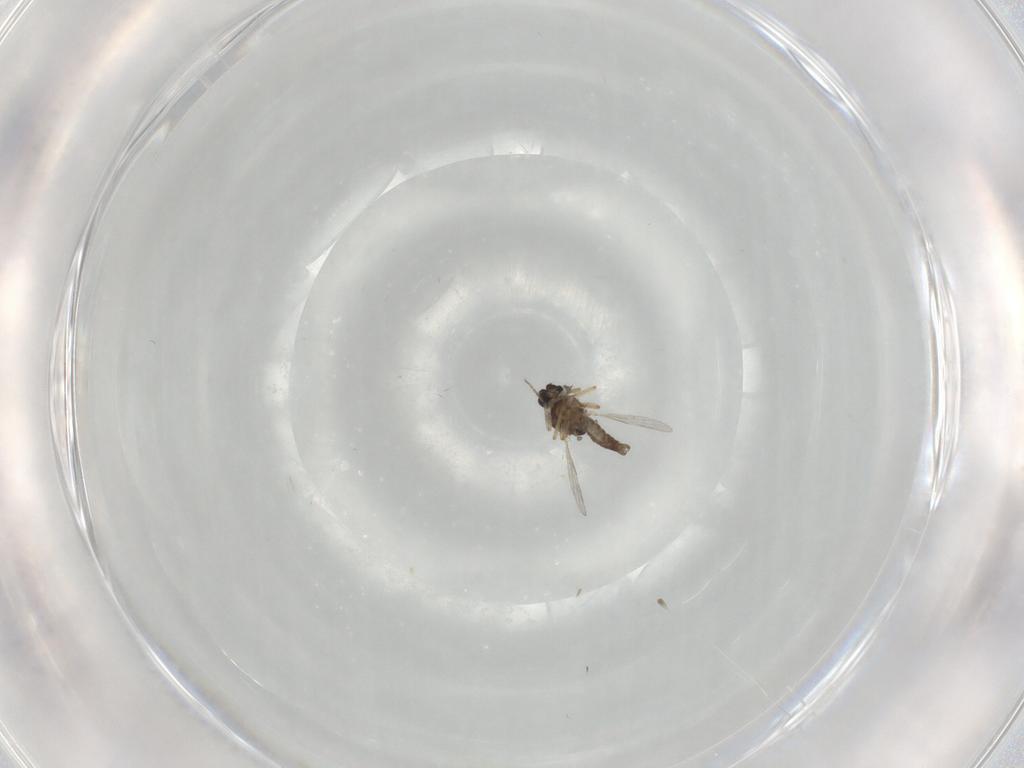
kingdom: Animalia
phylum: Arthropoda
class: Insecta
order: Diptera
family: Ceratopogonidae
